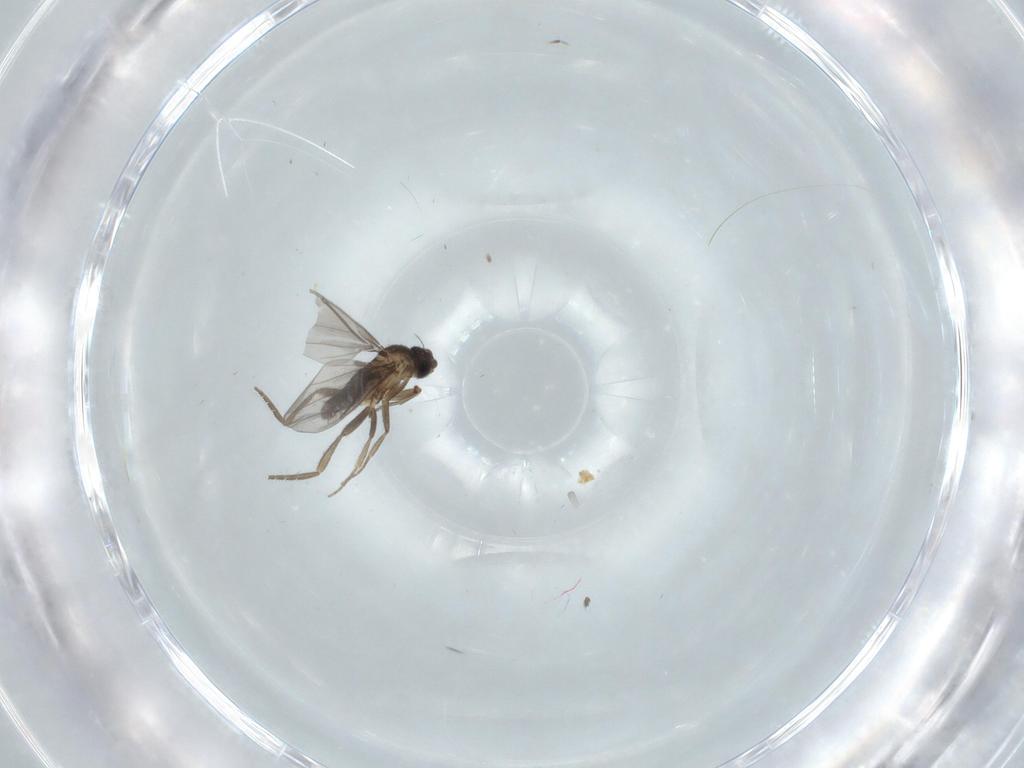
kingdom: Animalia
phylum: Arthropoda
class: Insecta
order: Diptera
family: Phoridae
